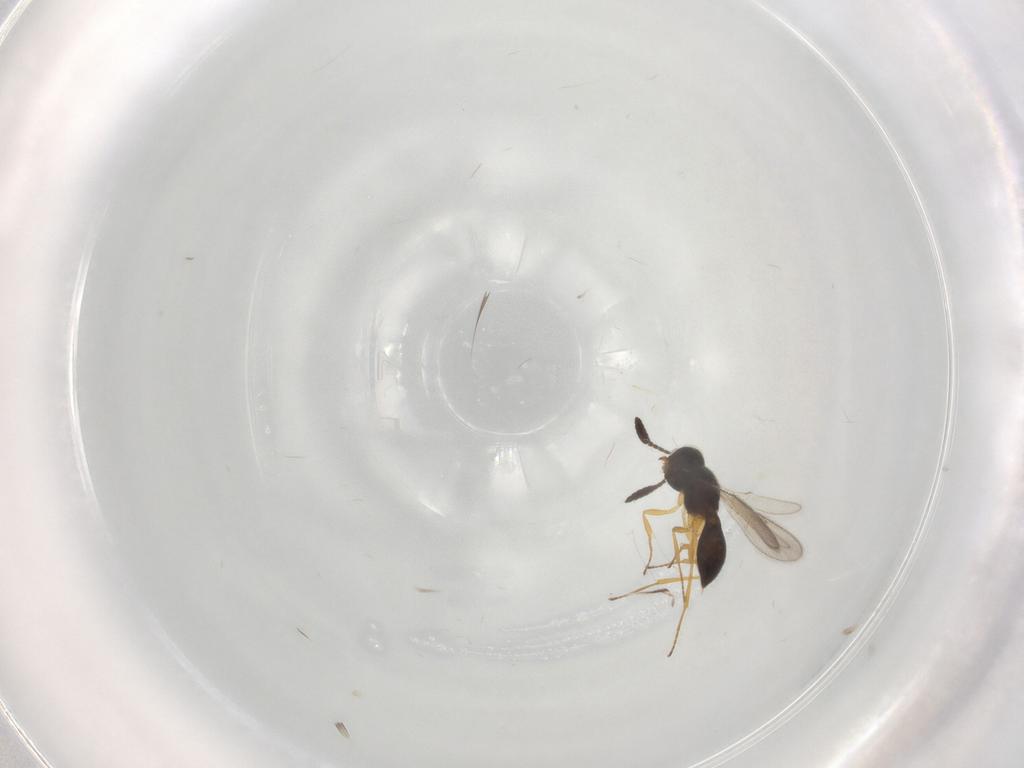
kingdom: Animalia
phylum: Arthropoda
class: Insecta
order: Hymenoptera
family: Scelionidae
